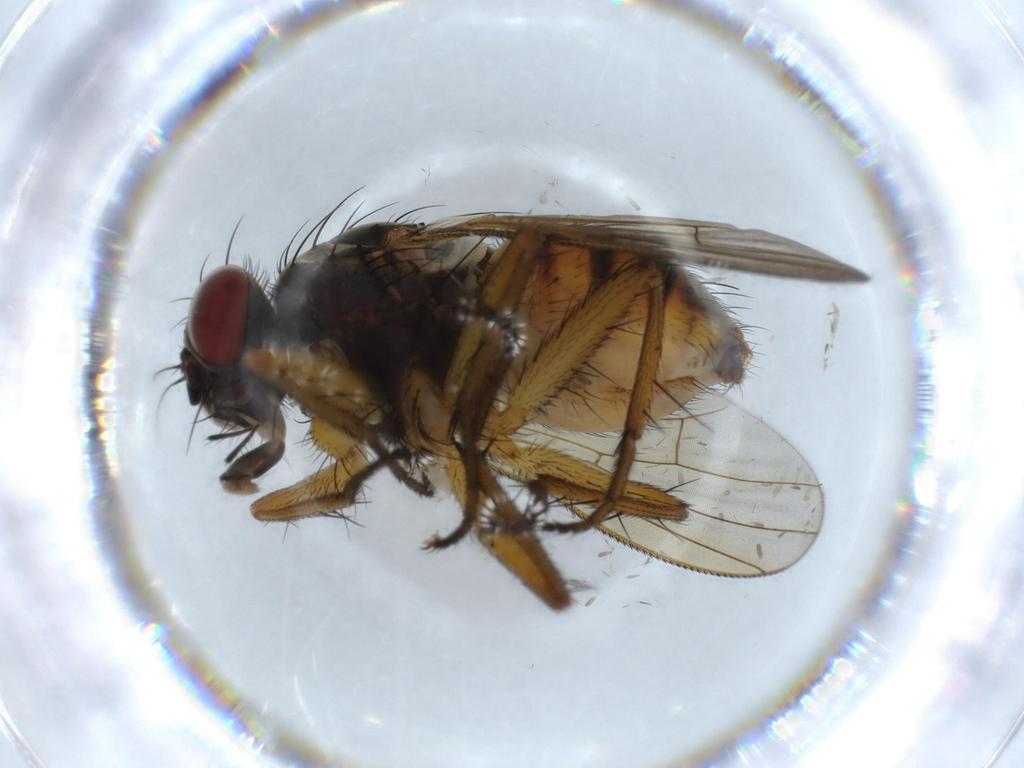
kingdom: Animalia
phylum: Arthropoda
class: Insecta
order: Diptera
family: Muscidae
